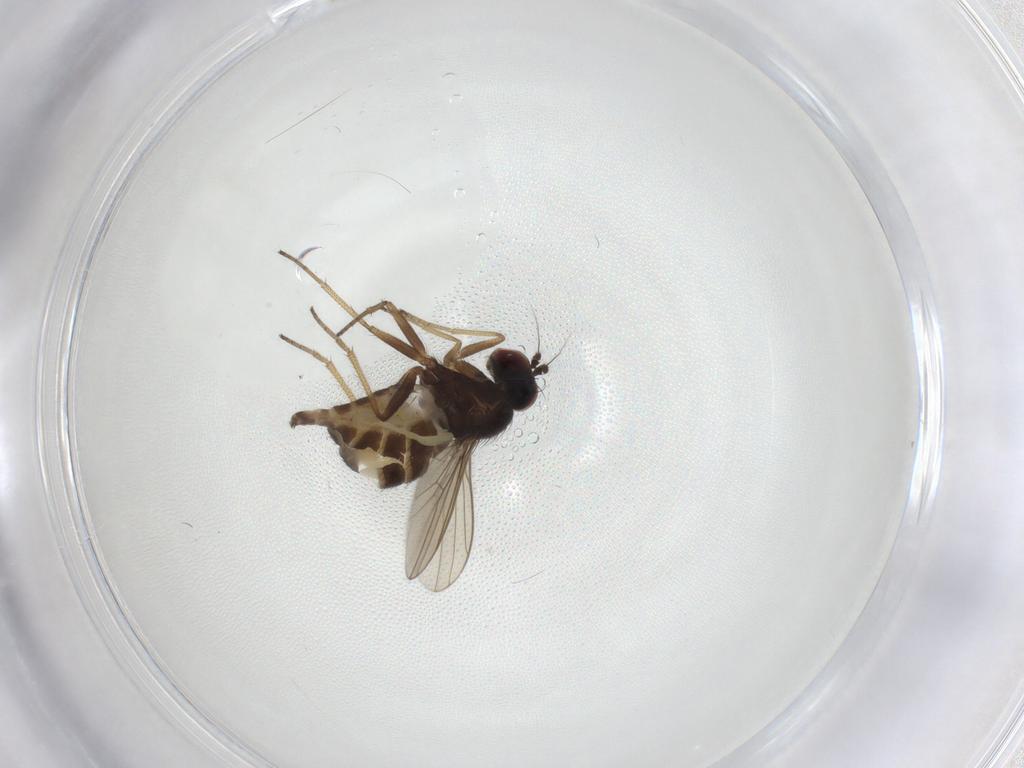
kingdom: Animalia
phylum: Arthropoda
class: Insecta
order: Diptera
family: Dolichopodidae
